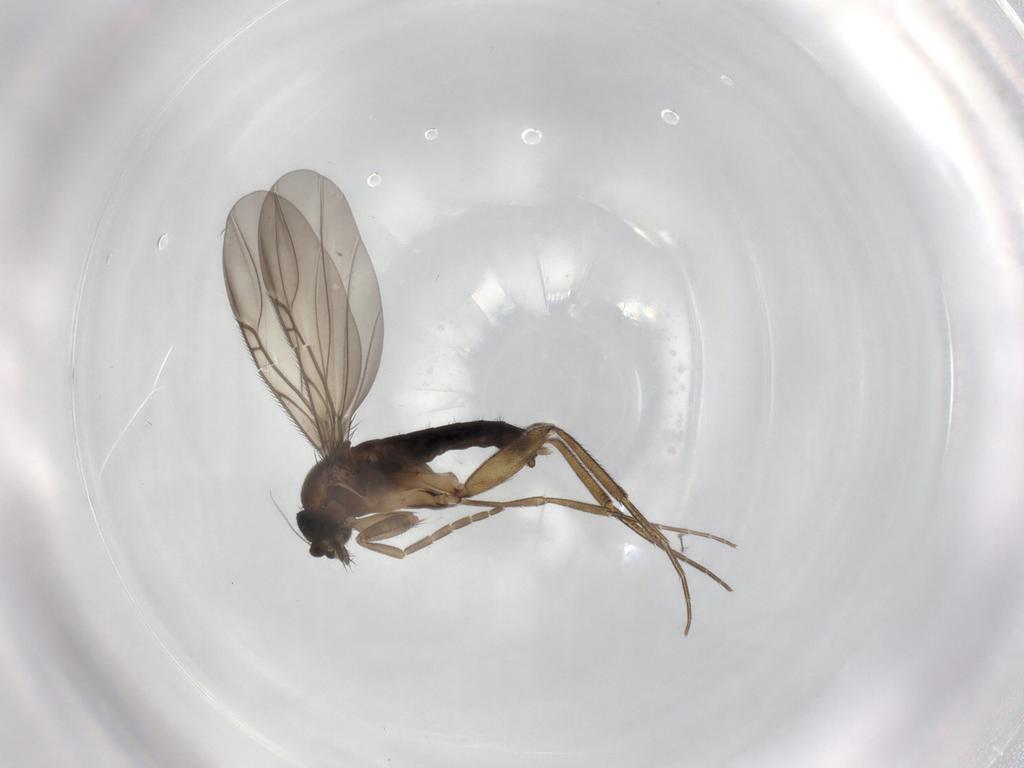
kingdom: Animalia
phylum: Arthropoda
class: Insecta
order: Diptera
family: Phoridae
